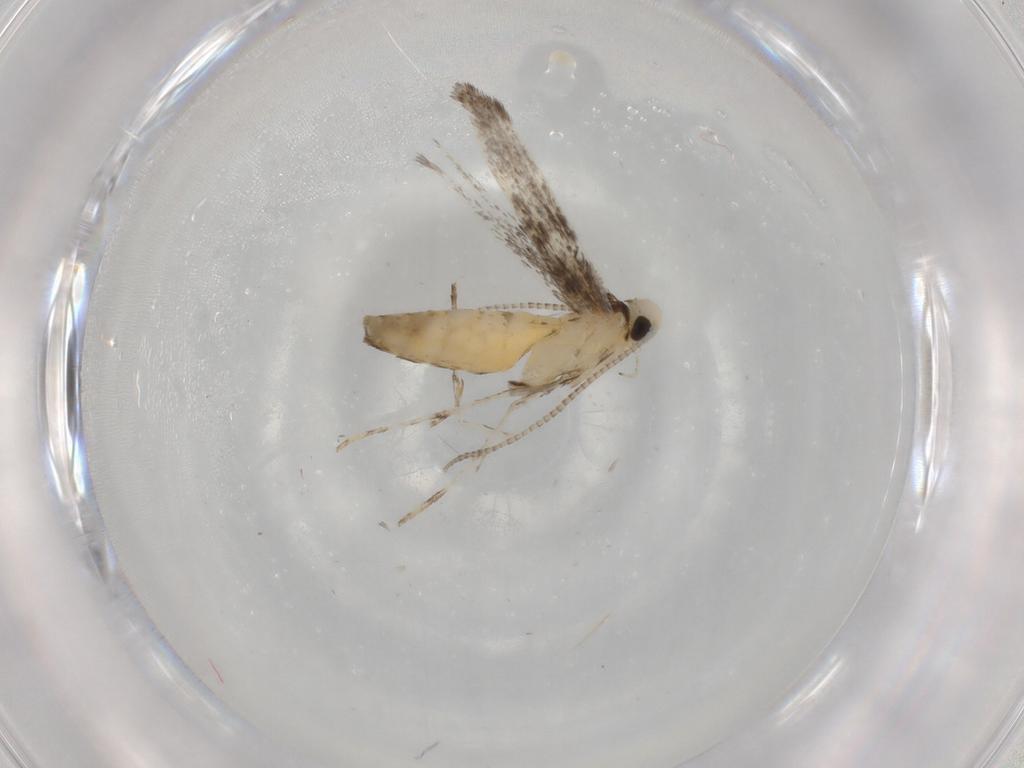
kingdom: Animalia
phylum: Arthropoda
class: Insecta
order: Lepidoptera
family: Gracillariidae
